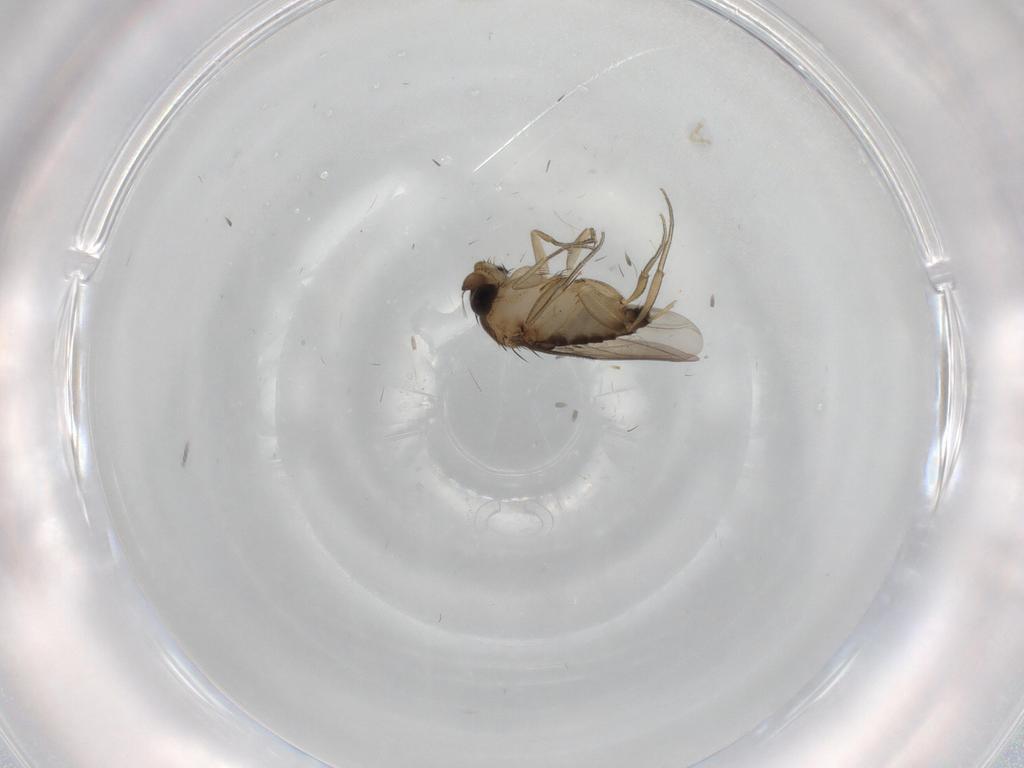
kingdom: Animalia
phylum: Arthropoda
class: Insecta
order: Diptera
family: Phoridae
